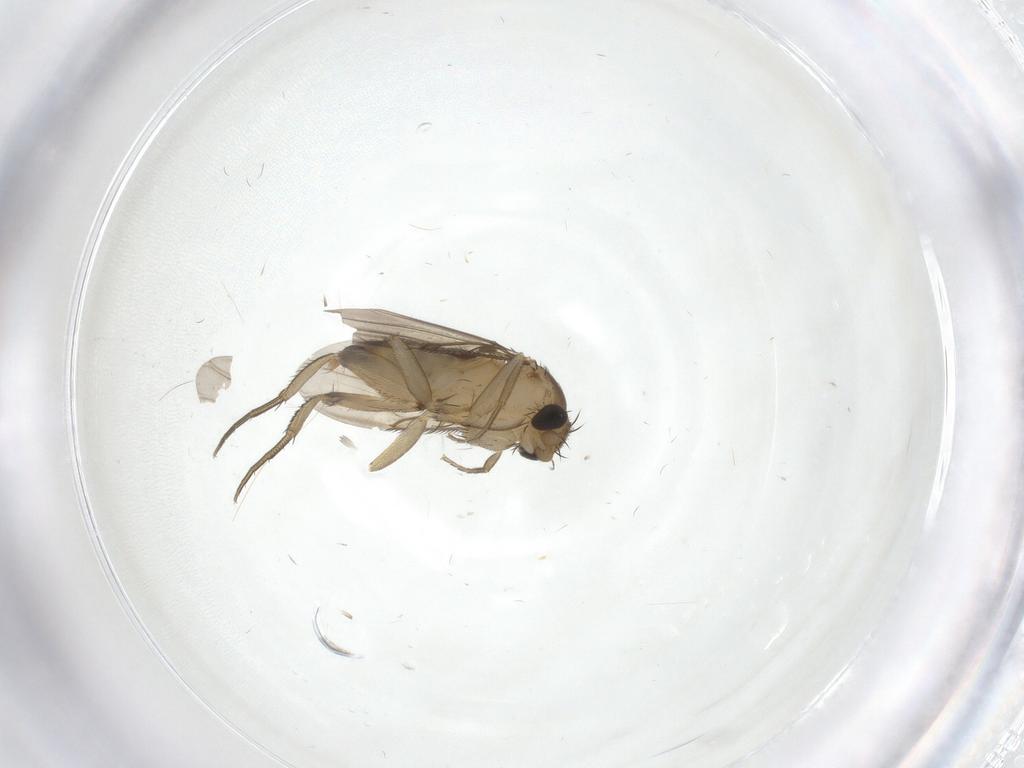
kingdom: Animalia
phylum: Arthropoda
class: Insecta
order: Diptera
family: Phoridae
